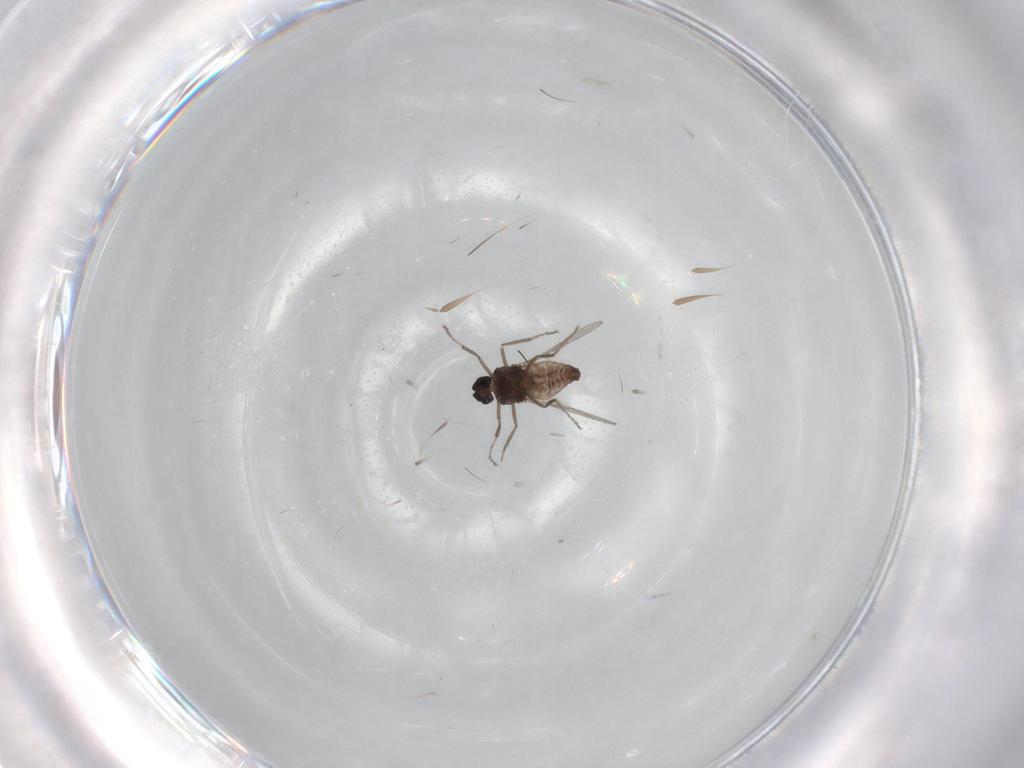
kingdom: Animalia
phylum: Arthropoda
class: Insecta
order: Diptera
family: Ceratopogonidae
